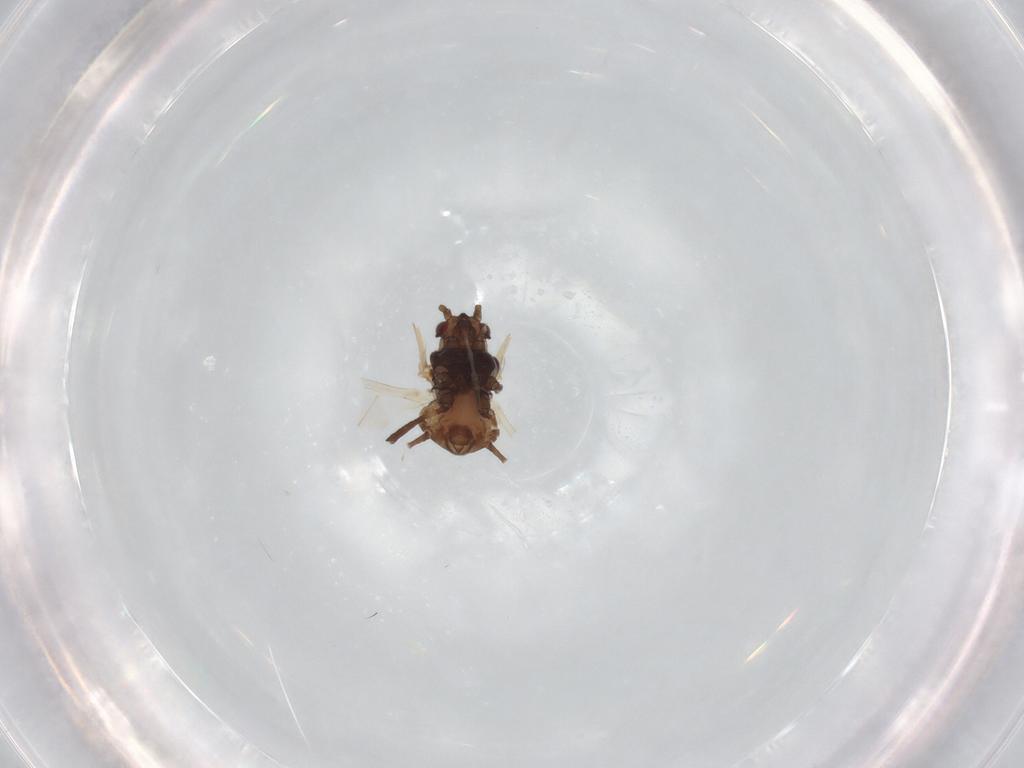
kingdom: Animalia
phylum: Arthropoda
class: Insecta
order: Hemiptera
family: Aphididae
